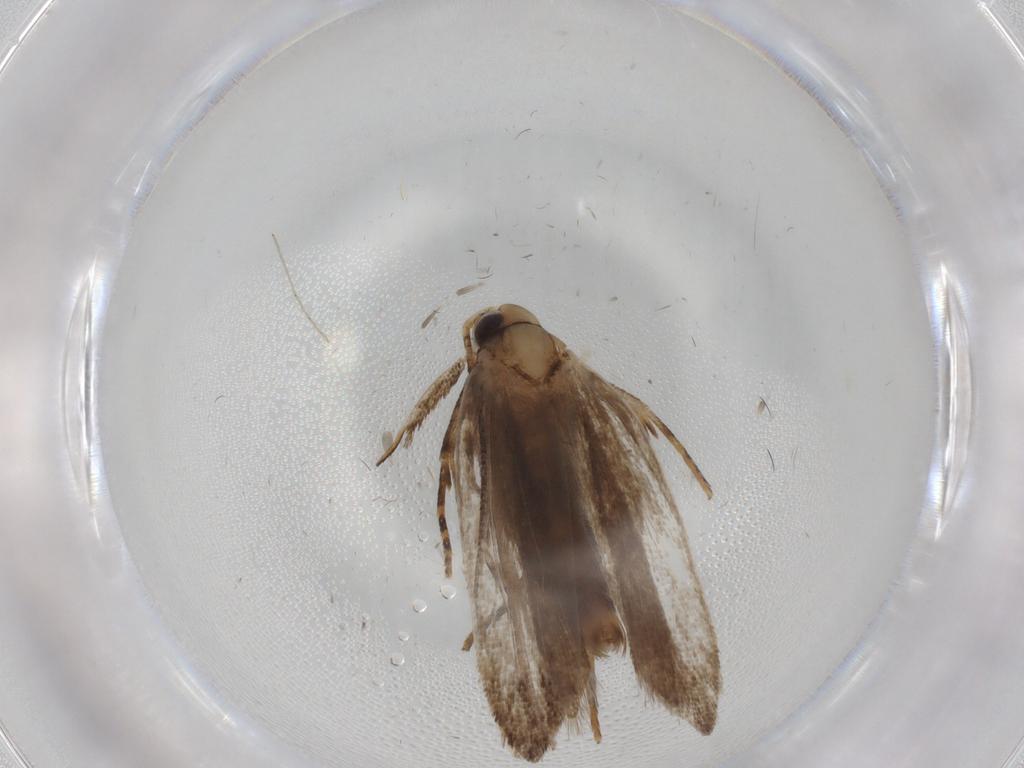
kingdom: Animalia
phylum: Arthropoda
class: Insecta
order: Lepidoptera
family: Gelechiidae
